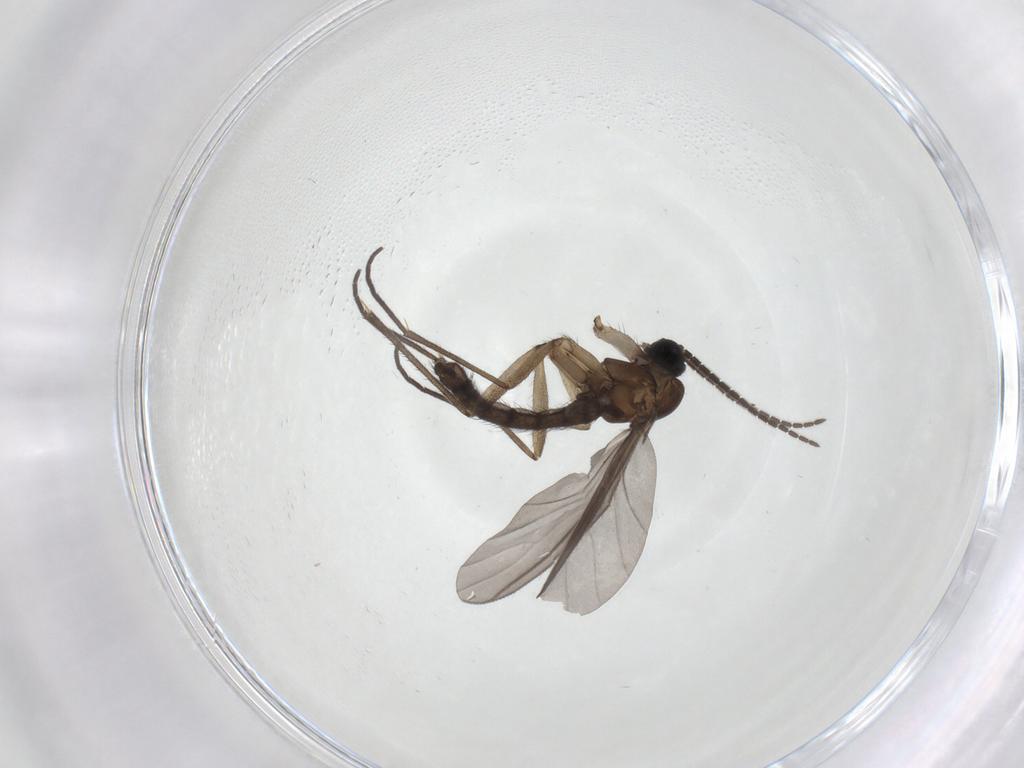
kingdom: Animalia
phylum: Arthropoda
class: Insecta
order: Diptera
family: Sciaridae
